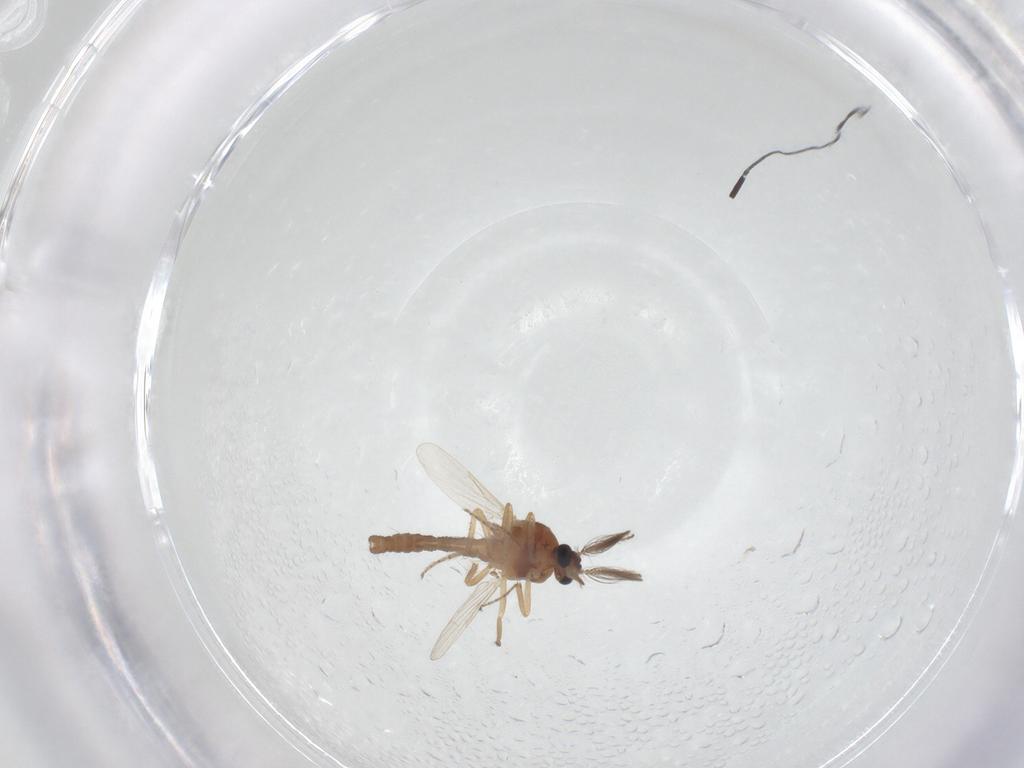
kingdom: Animalia
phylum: Arthropoda
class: Insecta
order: Diptera
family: Ceratopogonidae
